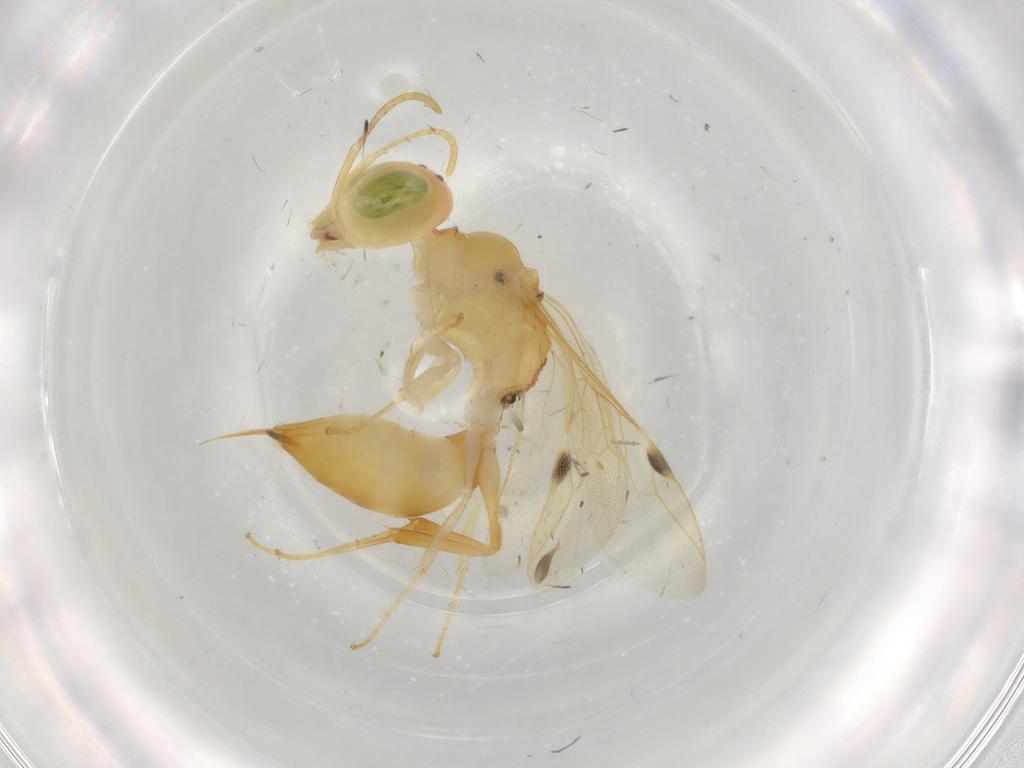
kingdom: Animalia
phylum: Arthropoda
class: Insecta
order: Hymenoptera
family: Pemphredonidae
